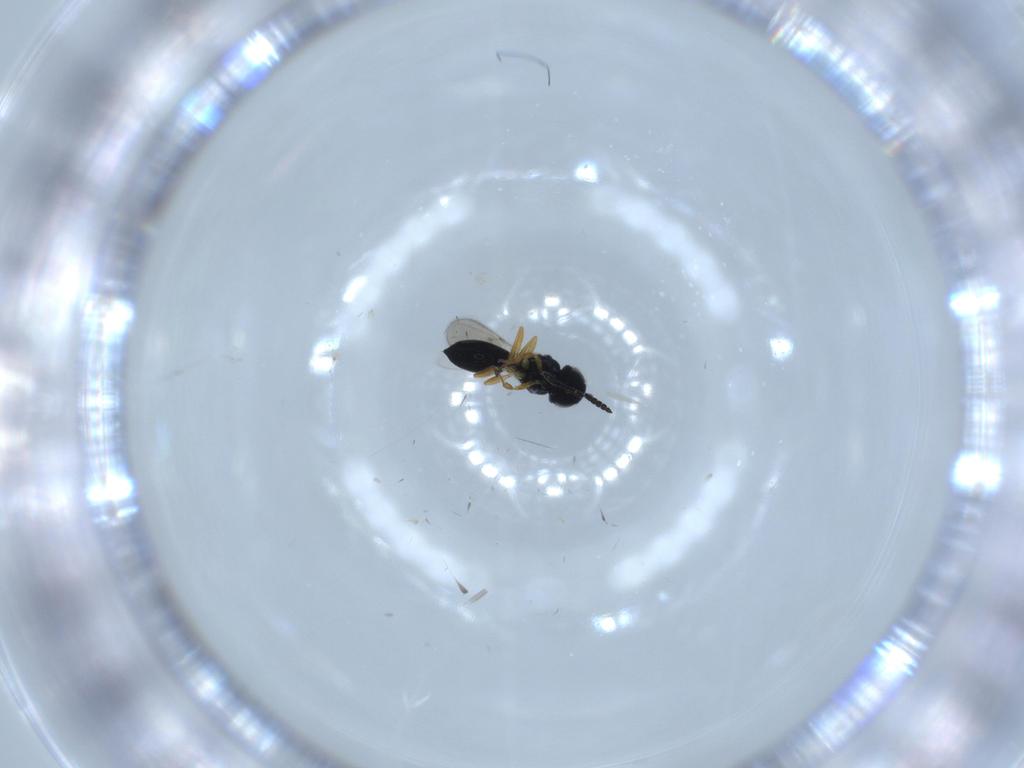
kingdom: Animalia
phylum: Arthropoda
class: Insecta
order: Hymenoptera
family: Scelionidae
